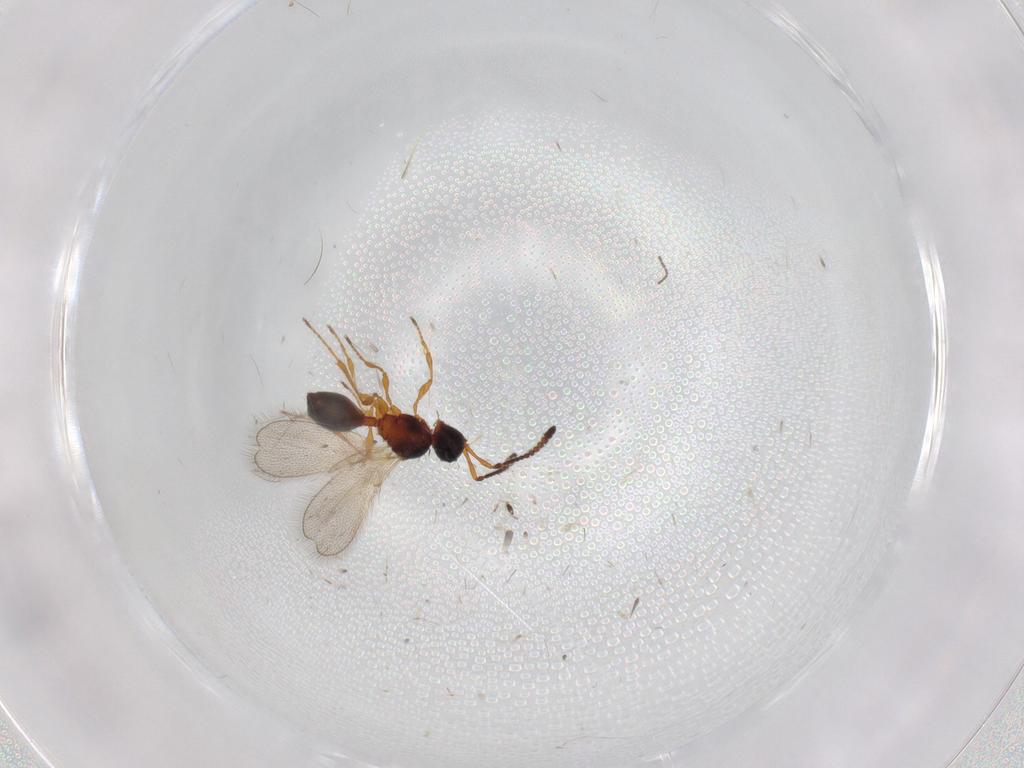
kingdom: Animalia
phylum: Arthropoda
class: Insecta
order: Hymenoptera
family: Diapriidae
